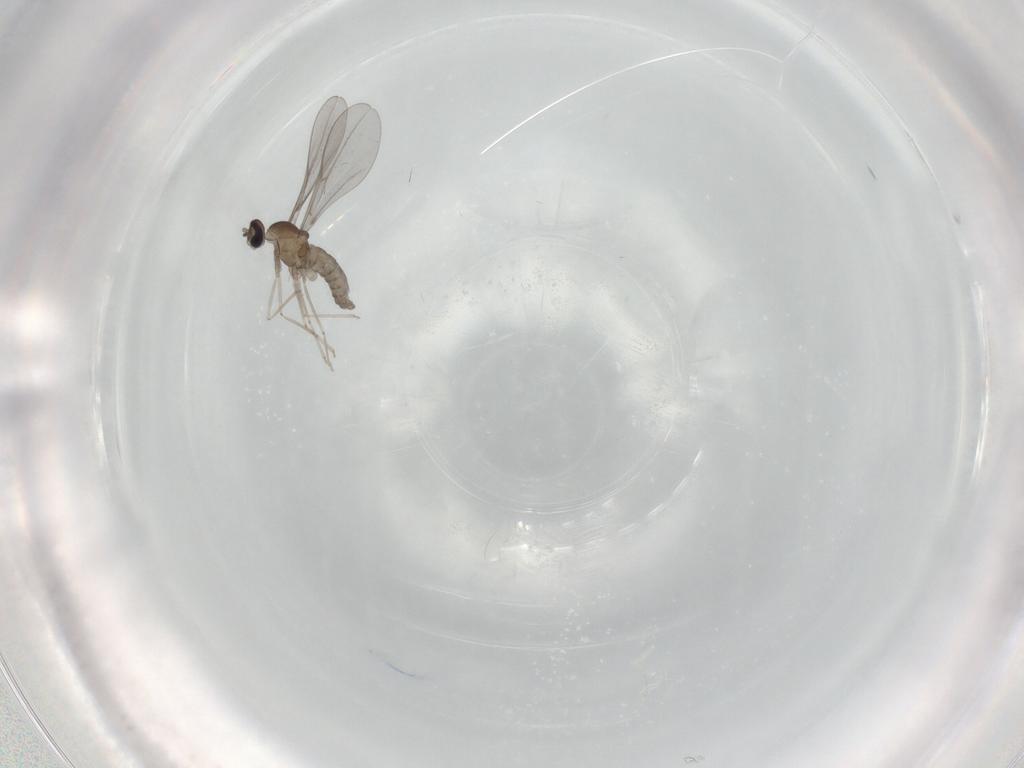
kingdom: Animalia
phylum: Arthropoda
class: Insecta
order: Diptera
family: Cecidomyiidae
